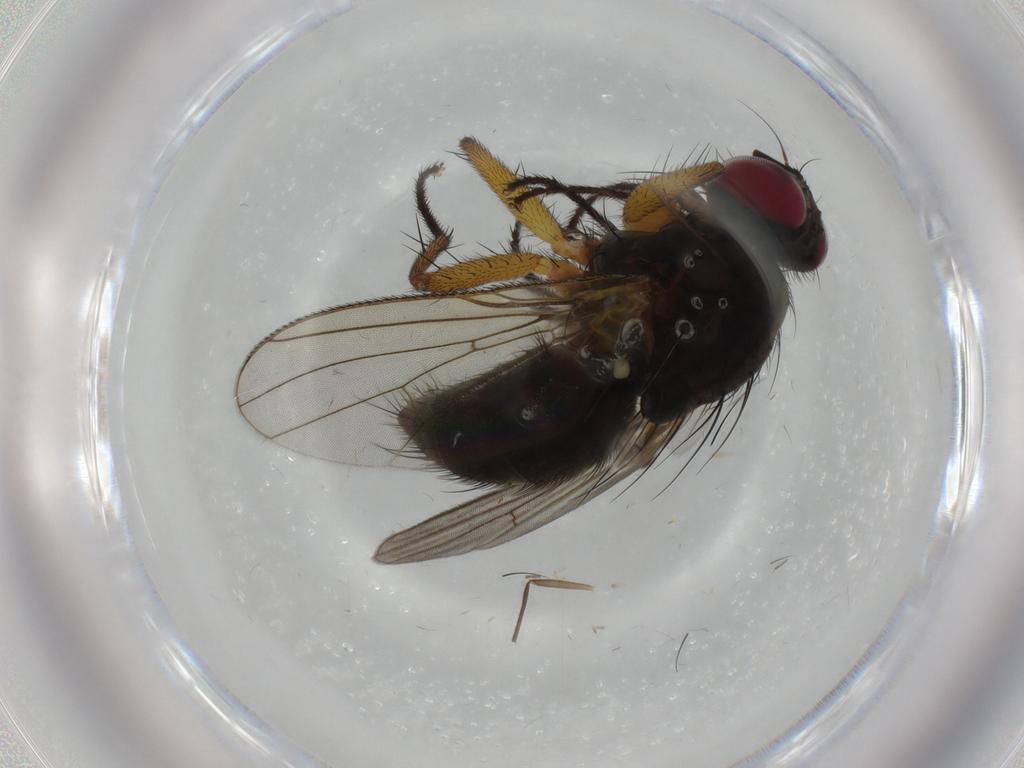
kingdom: Animalia
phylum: Arthropoda
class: Insecta
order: Diptera
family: Muscidae
